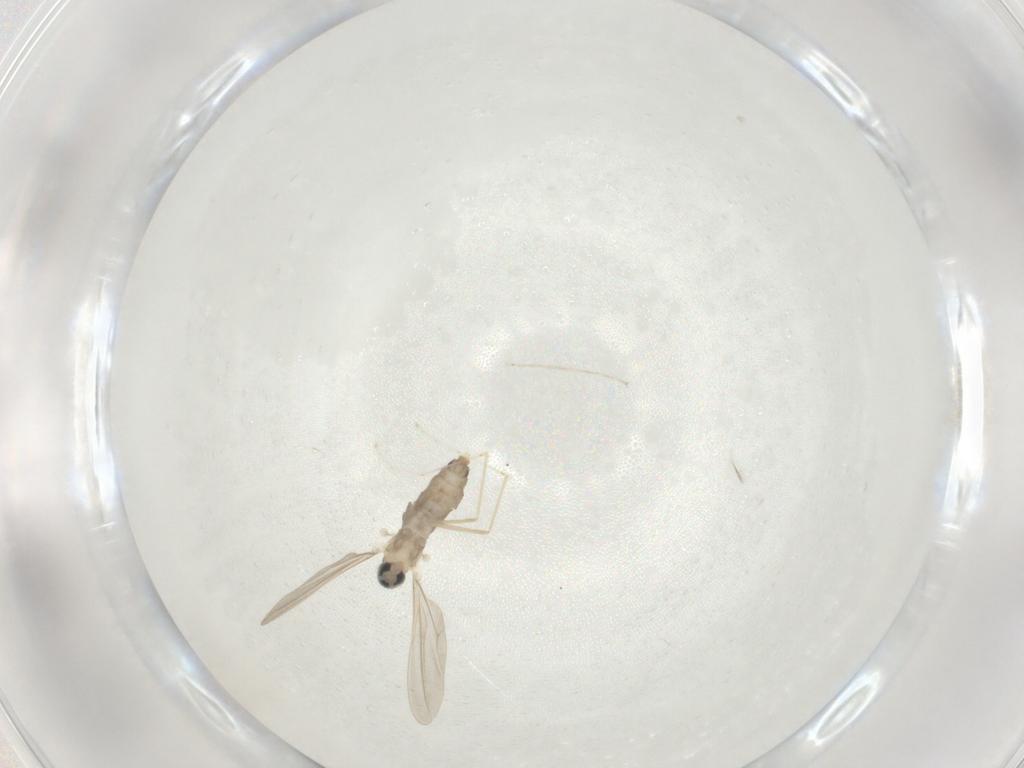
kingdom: Animalia
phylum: Arthropoda
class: Insecta
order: Diptera
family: Cecidomyiidae
